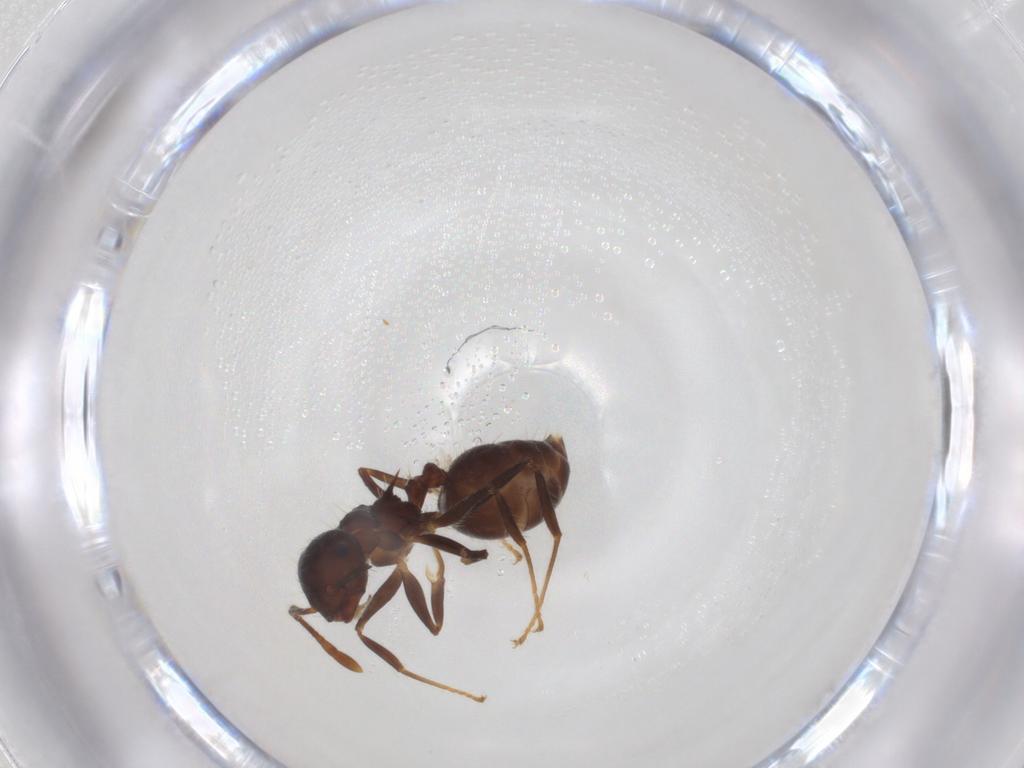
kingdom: Animalia
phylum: Arthropoda
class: Insecta
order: Hymenoptera
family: Formicidae
